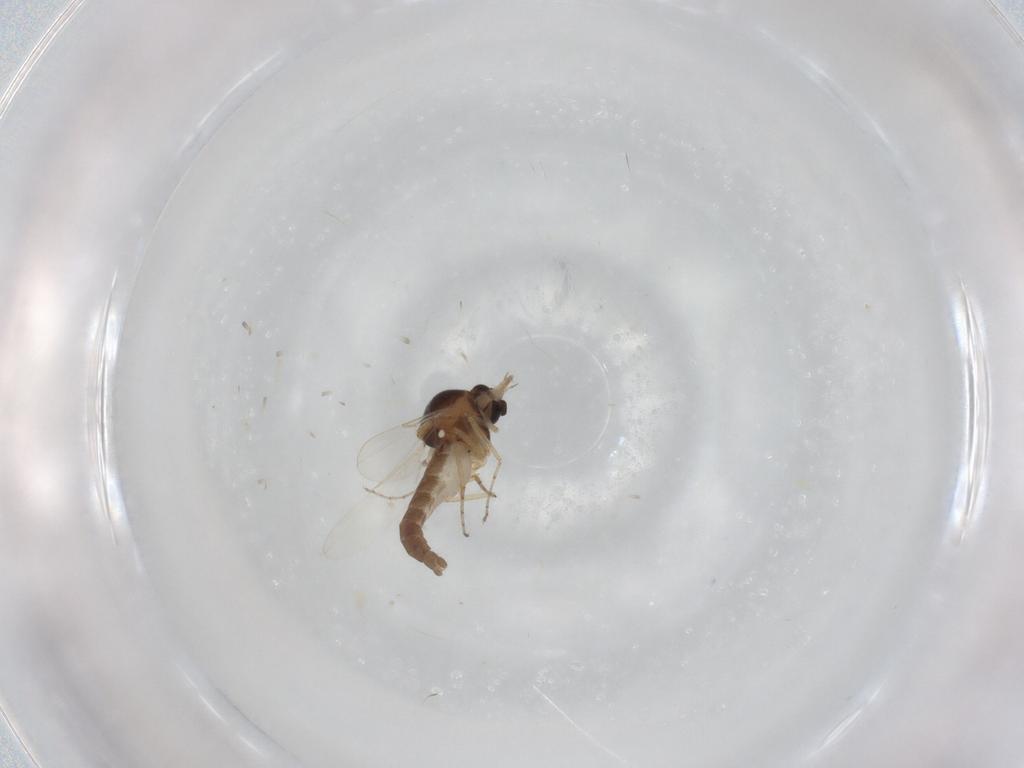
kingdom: Animalia
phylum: Arthropoda
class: Insecta
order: Diptera
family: Ceratopogonidae
